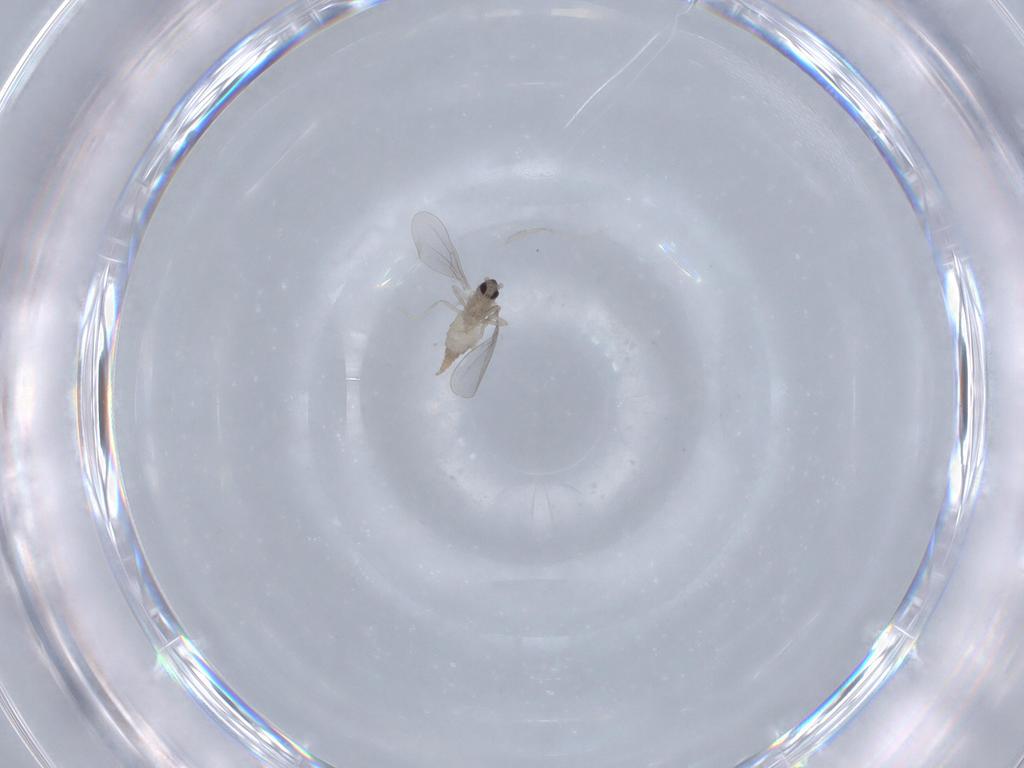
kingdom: Animalia
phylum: Arthropoda
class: Insecta
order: Diptera
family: Cecidomyiidae
